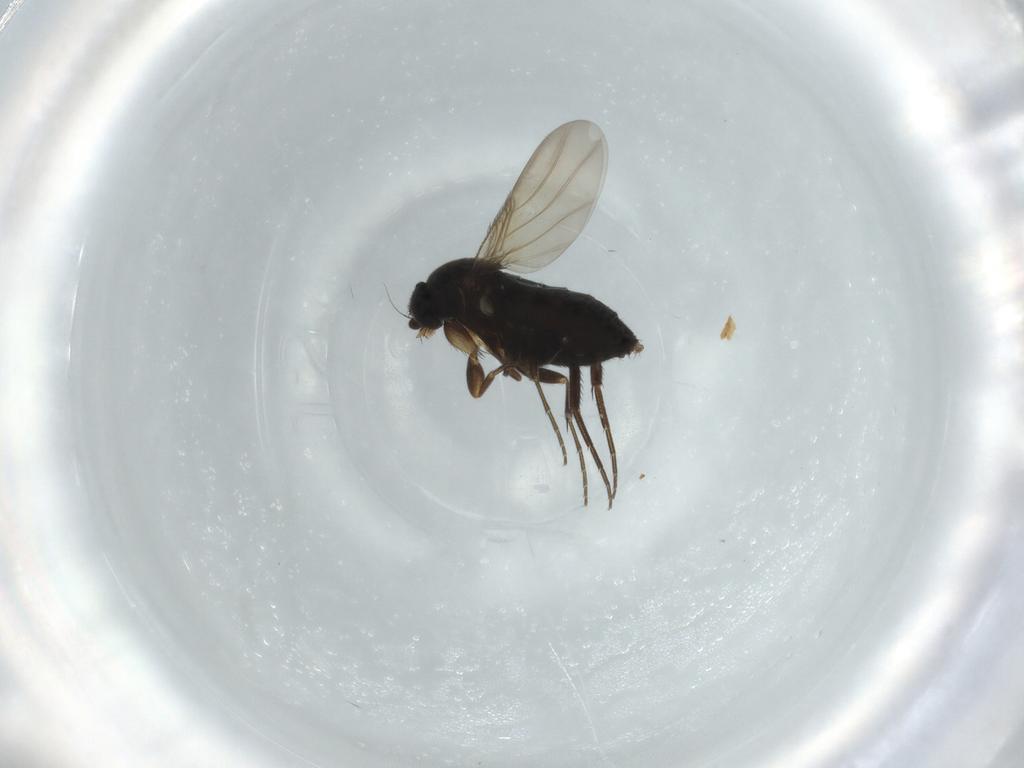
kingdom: Animalia
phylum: Arthropoda
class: Insecta
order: Diptera
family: Phoridae
